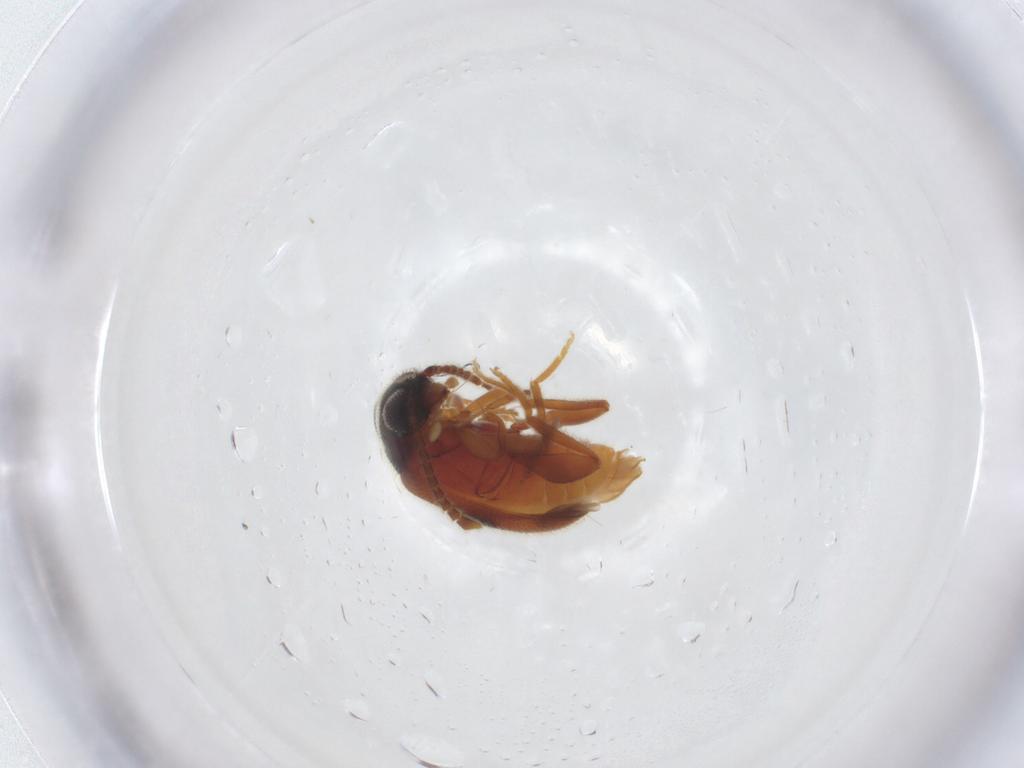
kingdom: Animalia
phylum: Arthropoda
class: Insecta
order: Coleoptera
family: Aderidae
